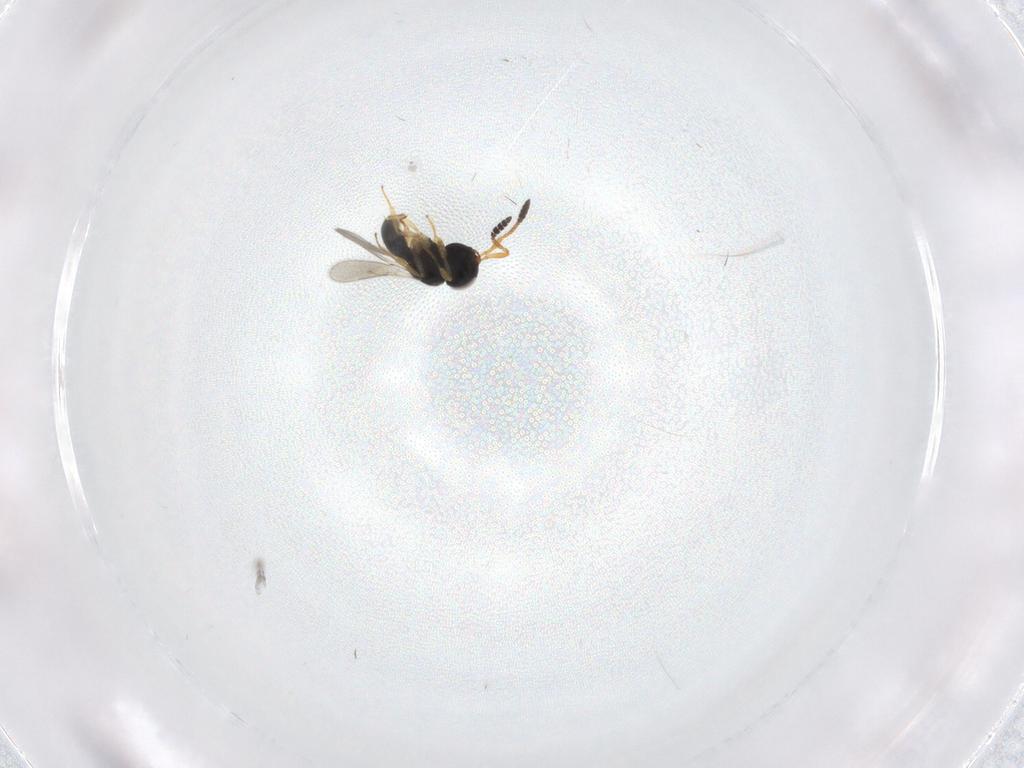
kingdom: Animalia
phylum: Arthropoda
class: Insecta
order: Hymenoptera
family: Scelionidae
